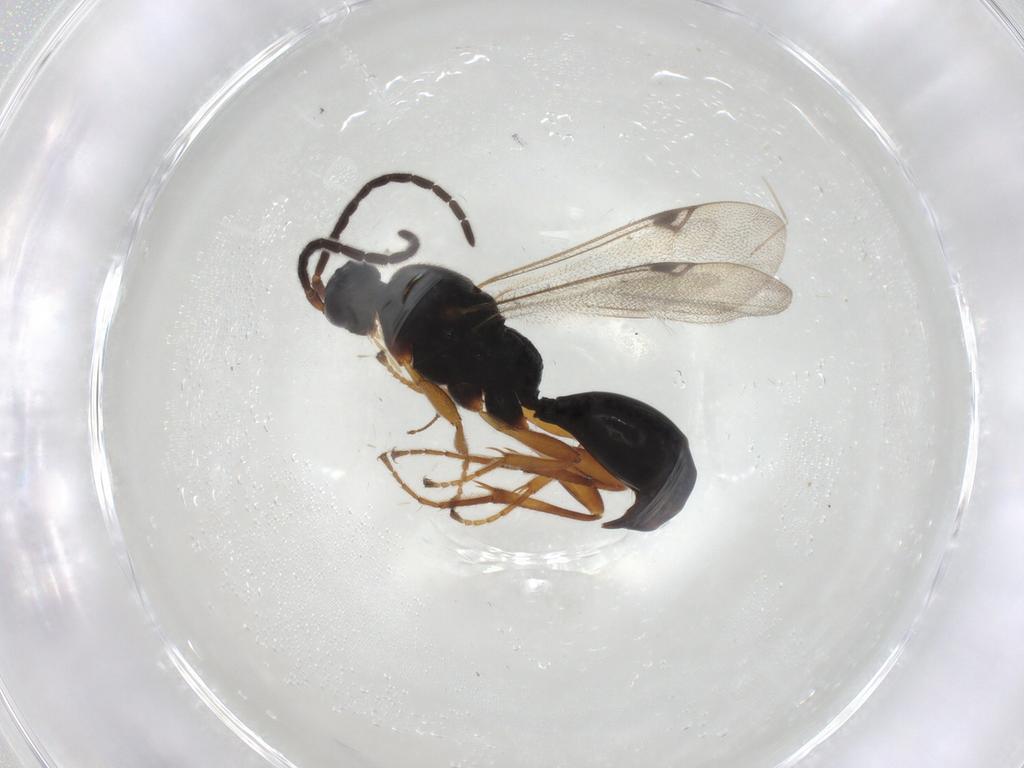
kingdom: Animalia
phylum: Arthropoda
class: Insecta
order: Hymenoptera
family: Proctotrupidae
